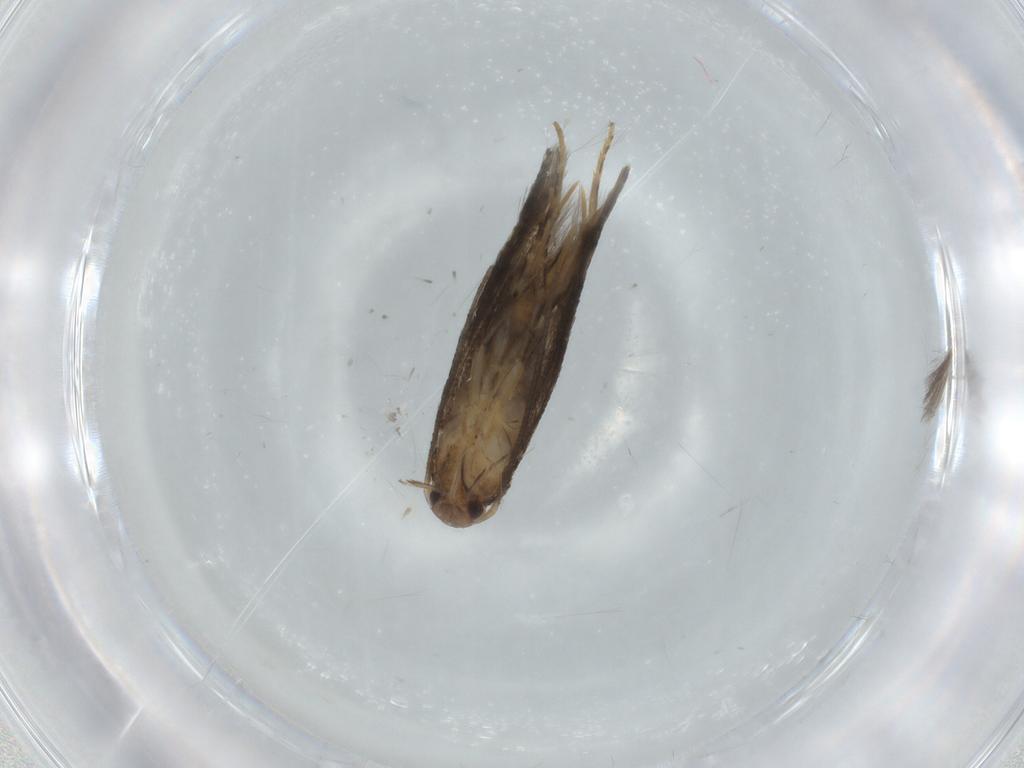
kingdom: Animalia
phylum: Arthropoda
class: Insecta
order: Lepidoptera
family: Elachistidae
